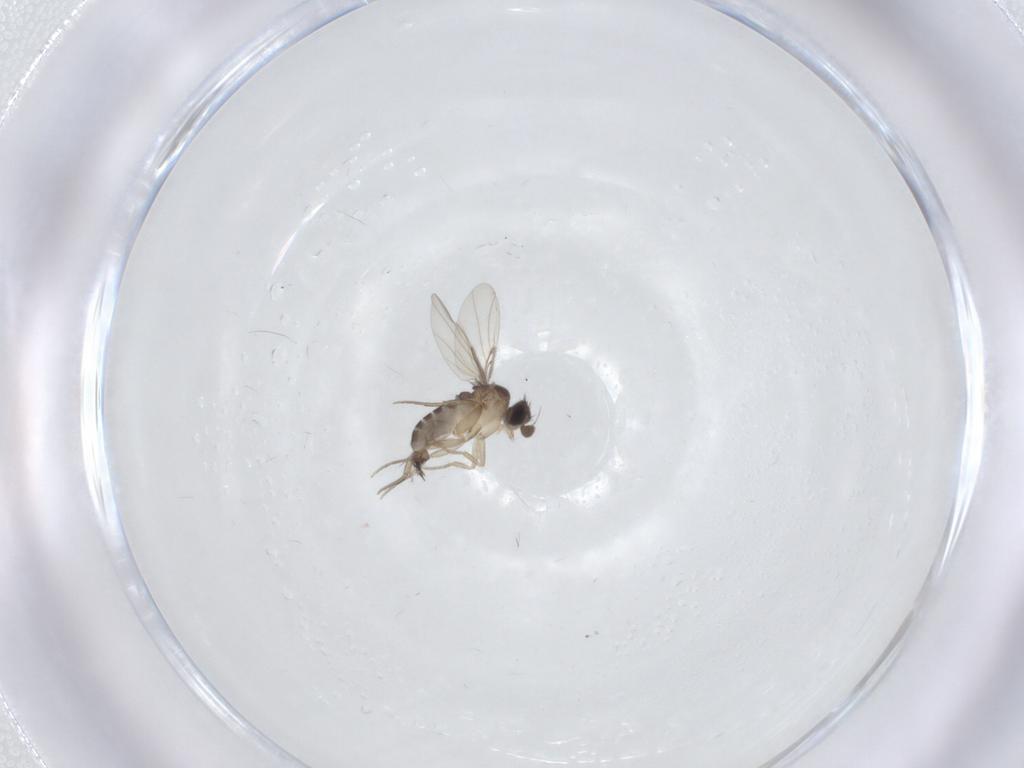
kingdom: Animalia
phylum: Arthropoda
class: Insecta
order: Diptera
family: Phoridae
